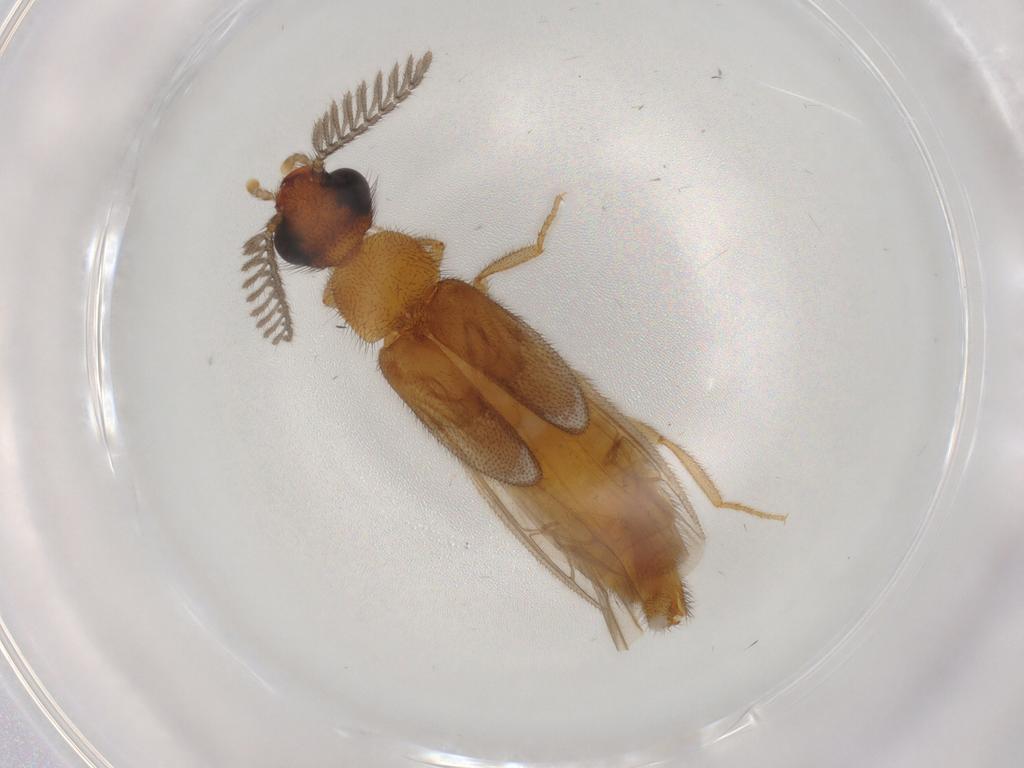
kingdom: Animalia
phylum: Arthropoda
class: Insecta
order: Coleoptera
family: Phengodidae
